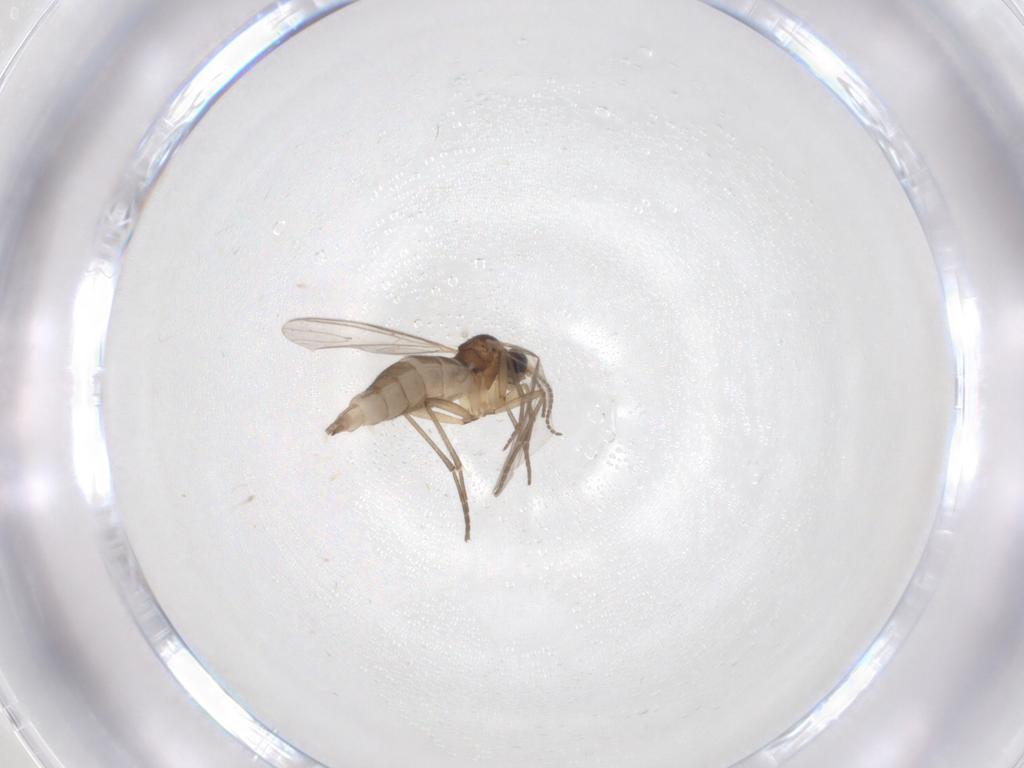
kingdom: Animalia
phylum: Arthropoda
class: Insecta
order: Diptera
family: Sciaridae
